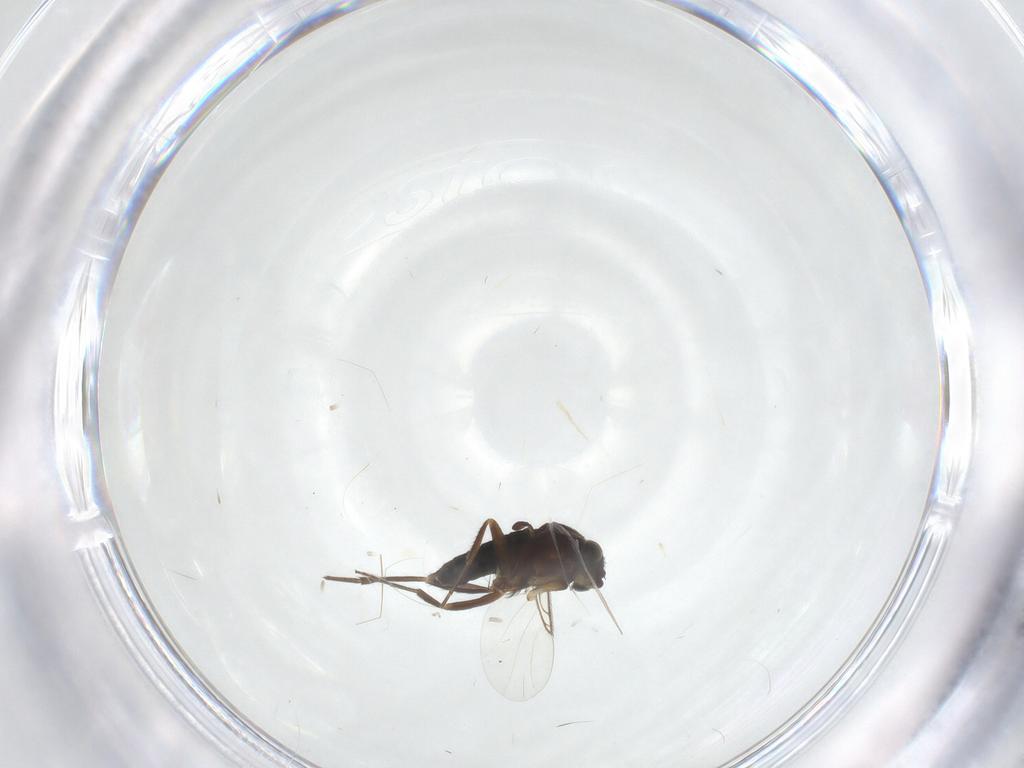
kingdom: Animalia
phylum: Arthropoda
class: Insecta
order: Diptera
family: Phoridae
